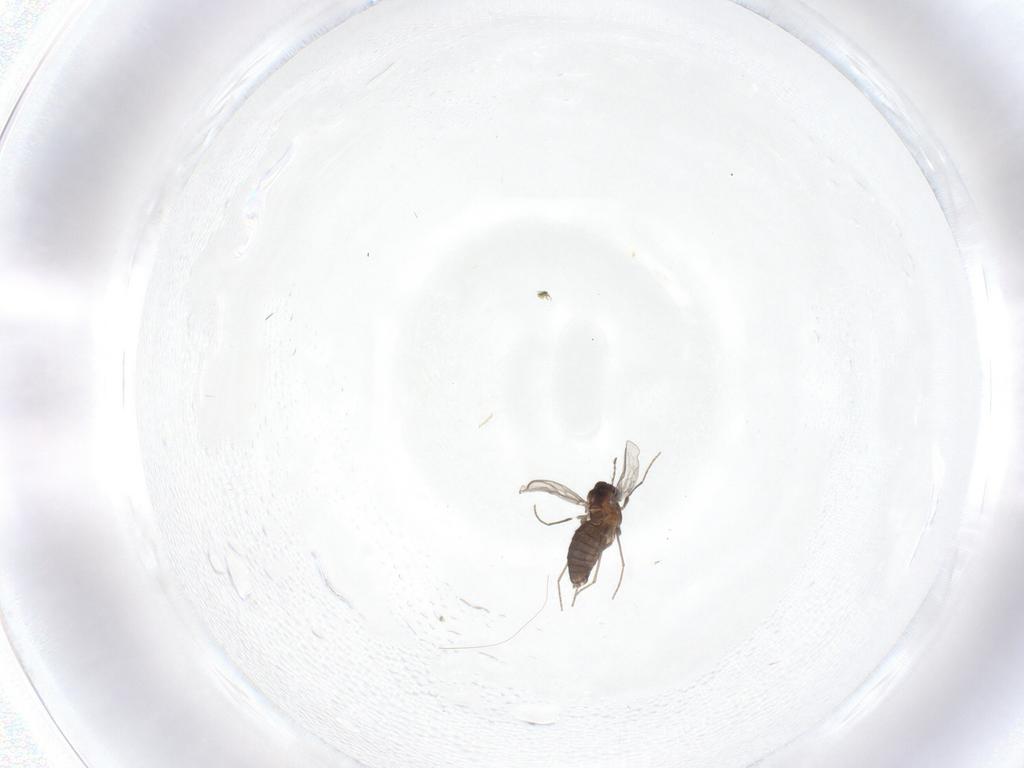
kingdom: Animalia
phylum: Arthropoda
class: Insecta
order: Diptera
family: Chironomidae
